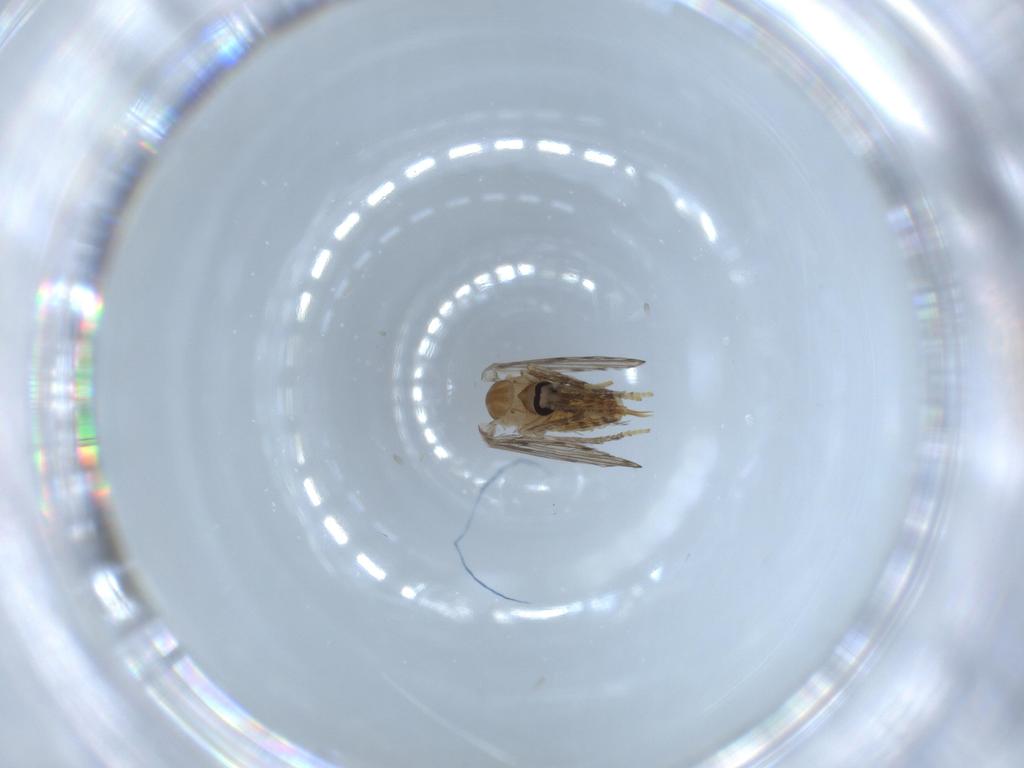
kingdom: Animalia
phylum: Arthropoda
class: Insecta
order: Diptera
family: Psychodidae
